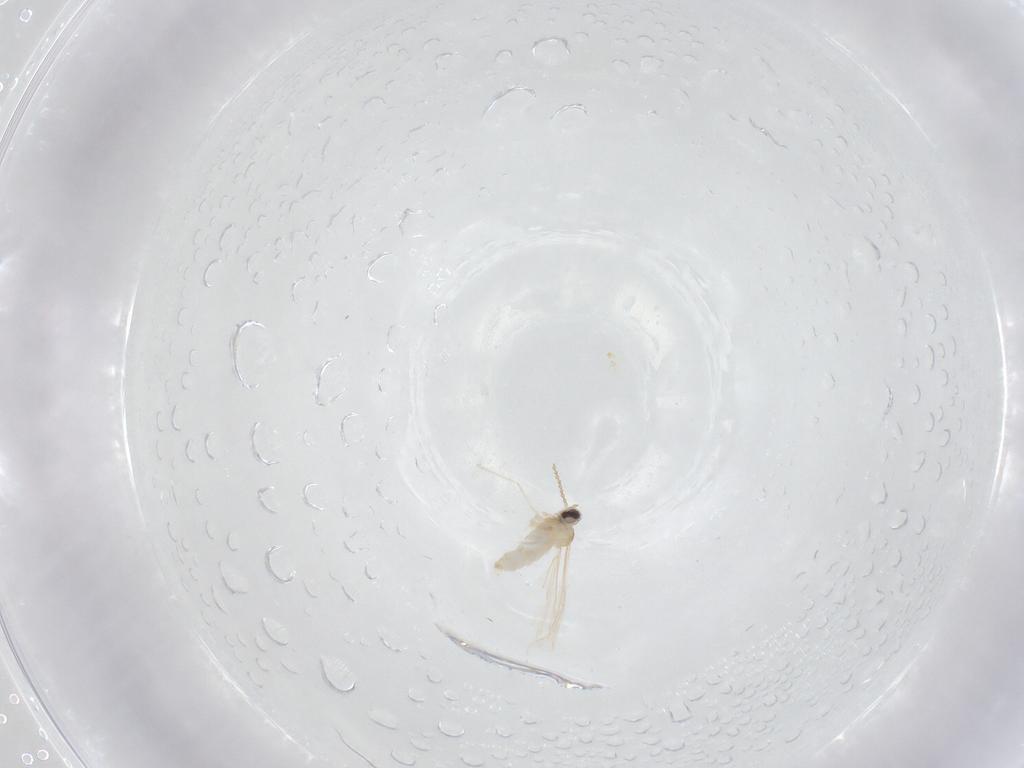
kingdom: Animalia
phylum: Arthropoda
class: Insecta
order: Diptera
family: Cecidomyiidae
